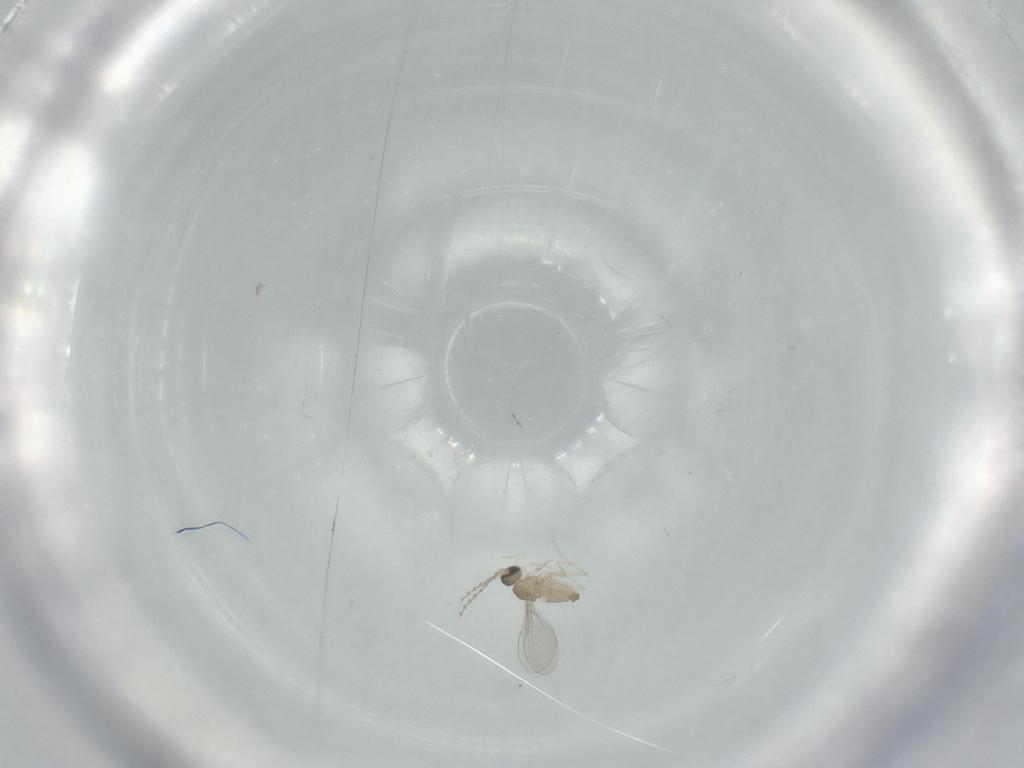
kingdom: Animalia
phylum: Arthropoda
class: Insecta
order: Diptera
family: Cecidomyiidae
